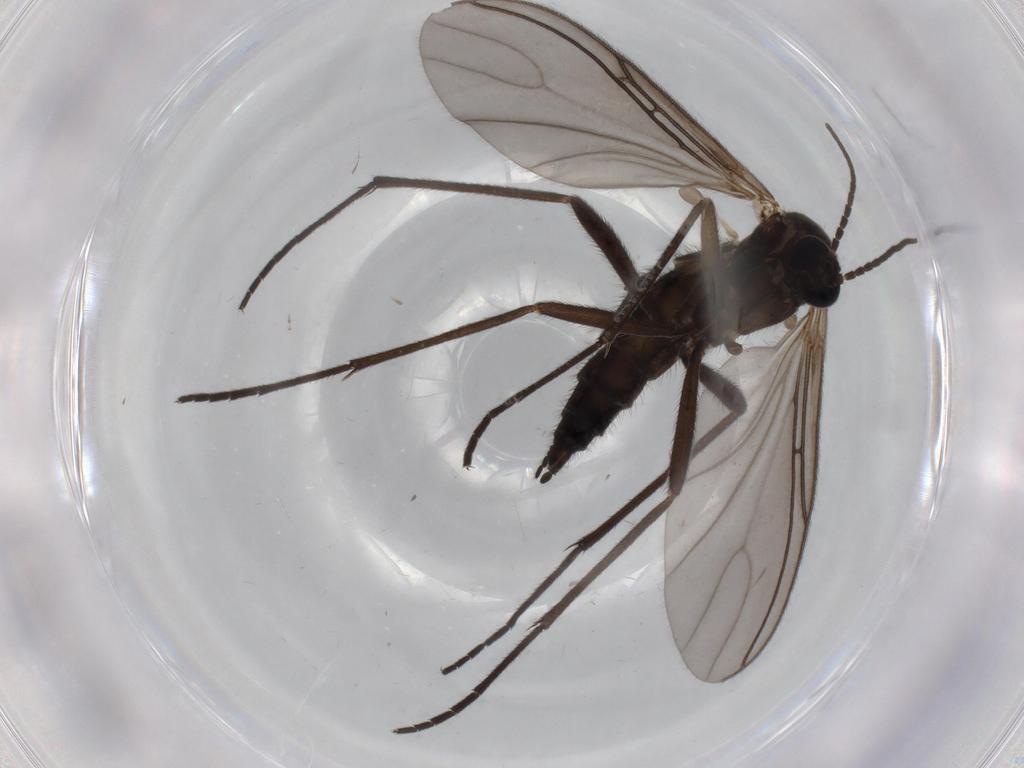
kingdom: Animalia
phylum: Arthropoda
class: Insecta
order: Diptera
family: Sciaridae
